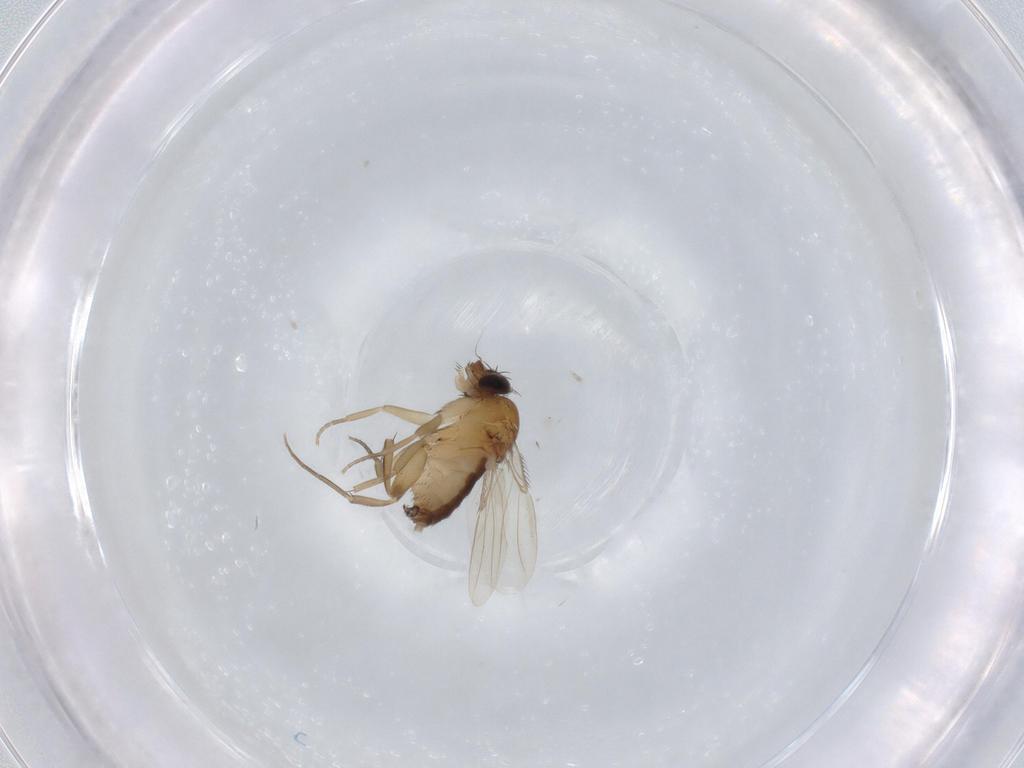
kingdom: Animalia
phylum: Arthropoda
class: Insecta
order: Diptera
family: Phoridae
